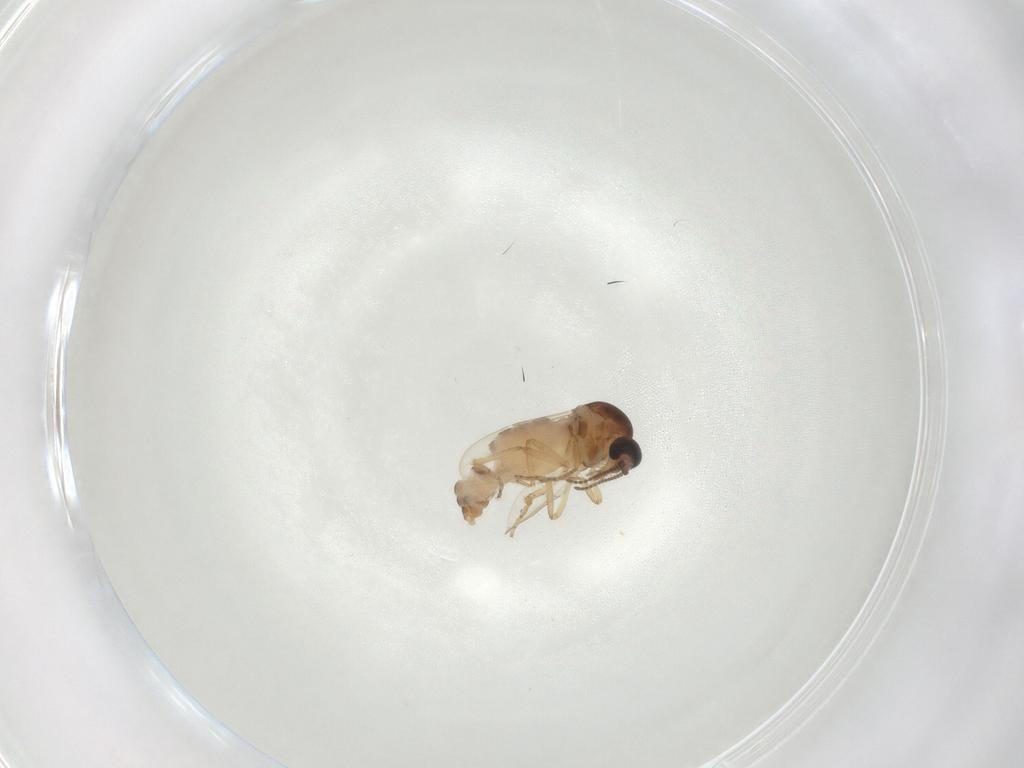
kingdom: Animalia
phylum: Arthropoda
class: Insecta
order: Diptera
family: Ceratopogonidae
